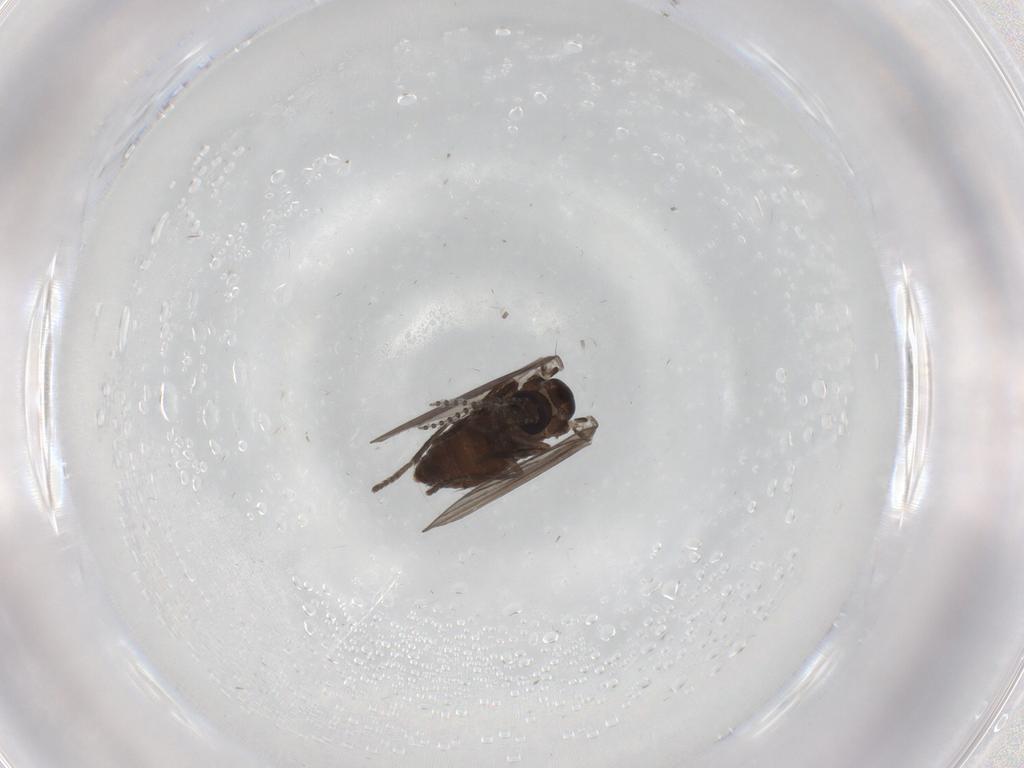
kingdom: Animalia
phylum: Arthropoda
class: Insecta
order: Diptera
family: Psychodidae
